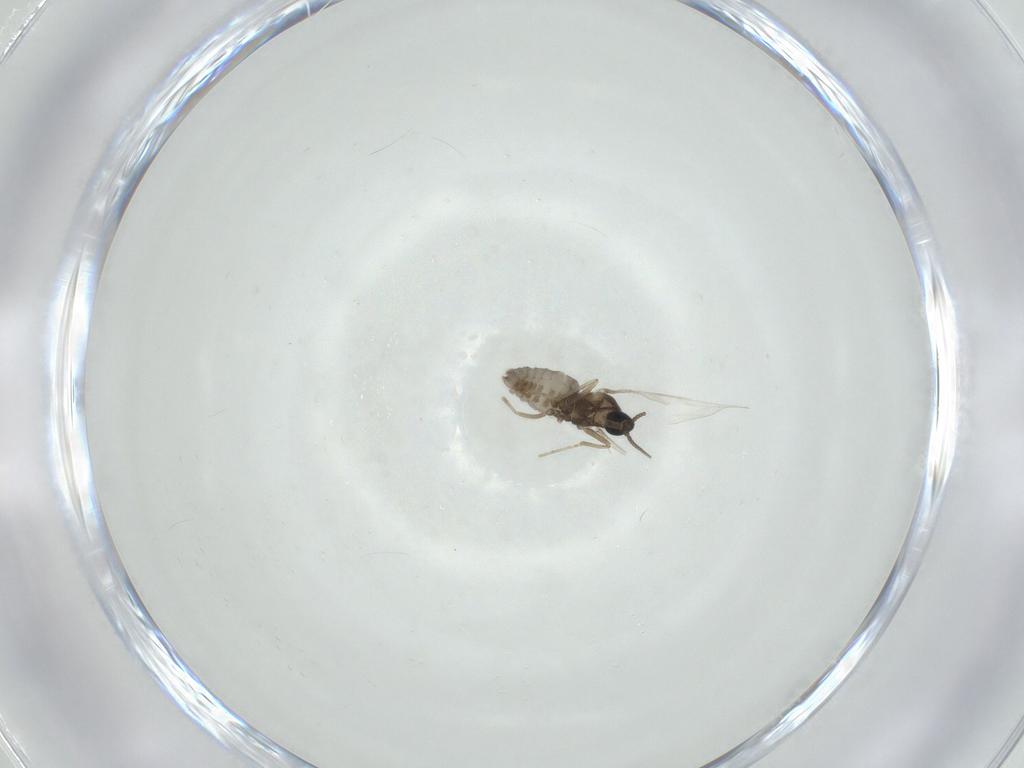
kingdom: Animalia
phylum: Arthropoda
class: Insecta
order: Diptera
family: Cecidomyiidae
